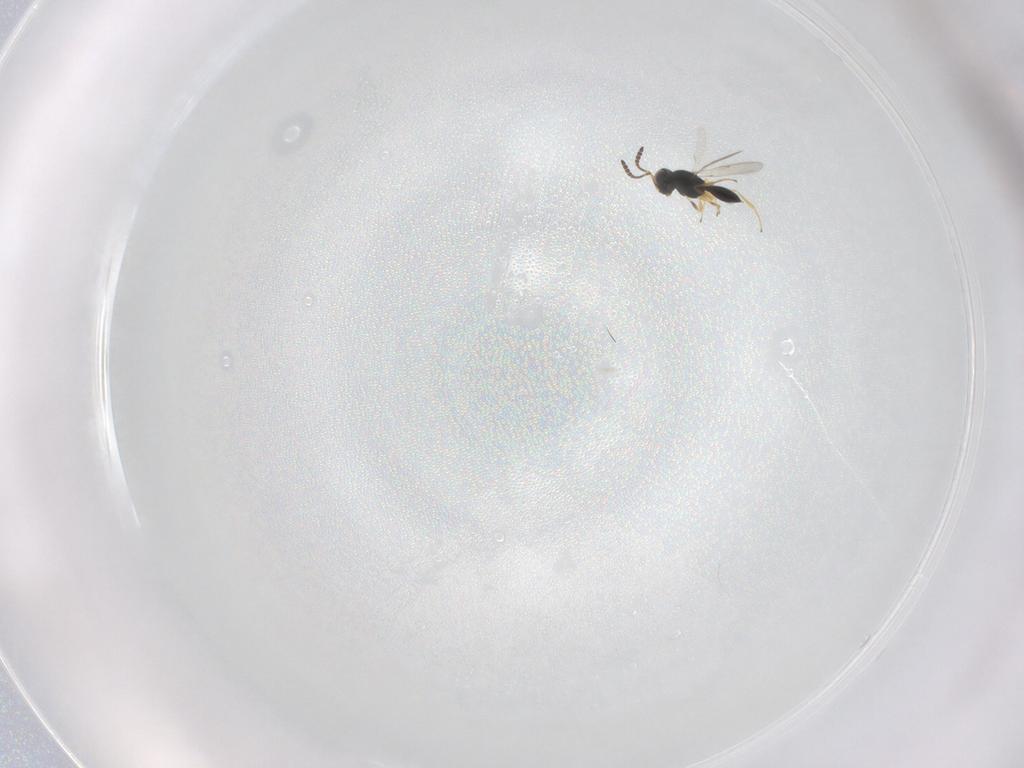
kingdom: Animalia
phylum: Arthropoda
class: Insecta
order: Hymenoptera
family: Scelionidae
